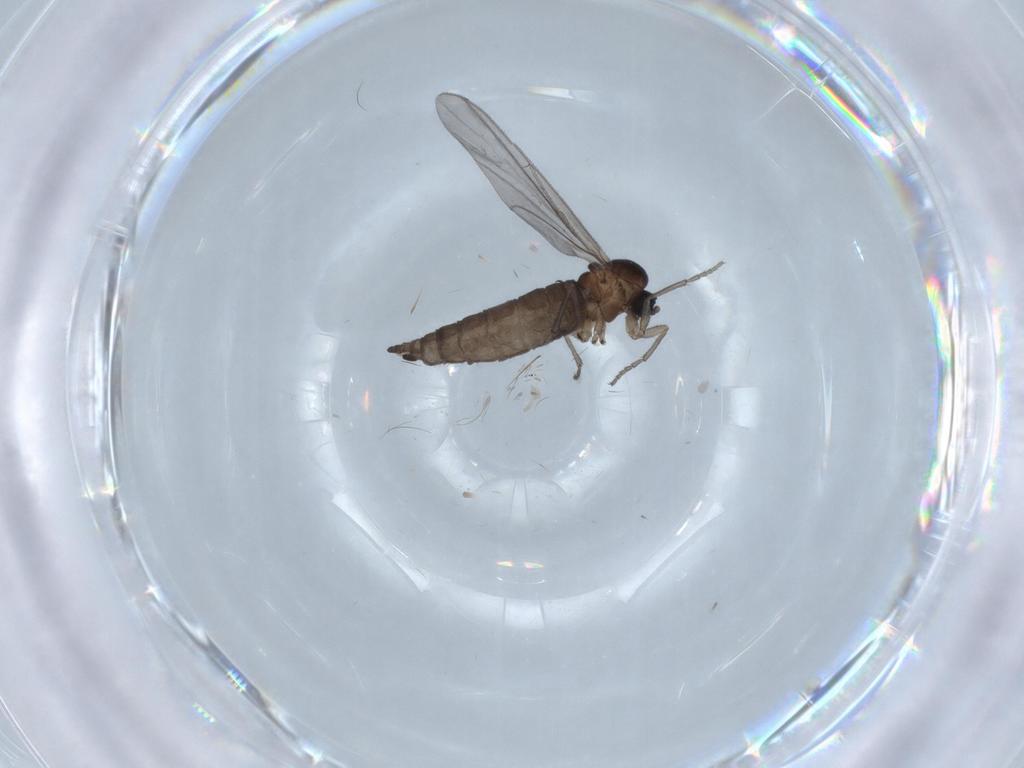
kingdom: Animalia
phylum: Arthropoda
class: Insecta
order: Diptera
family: Sciaridae
